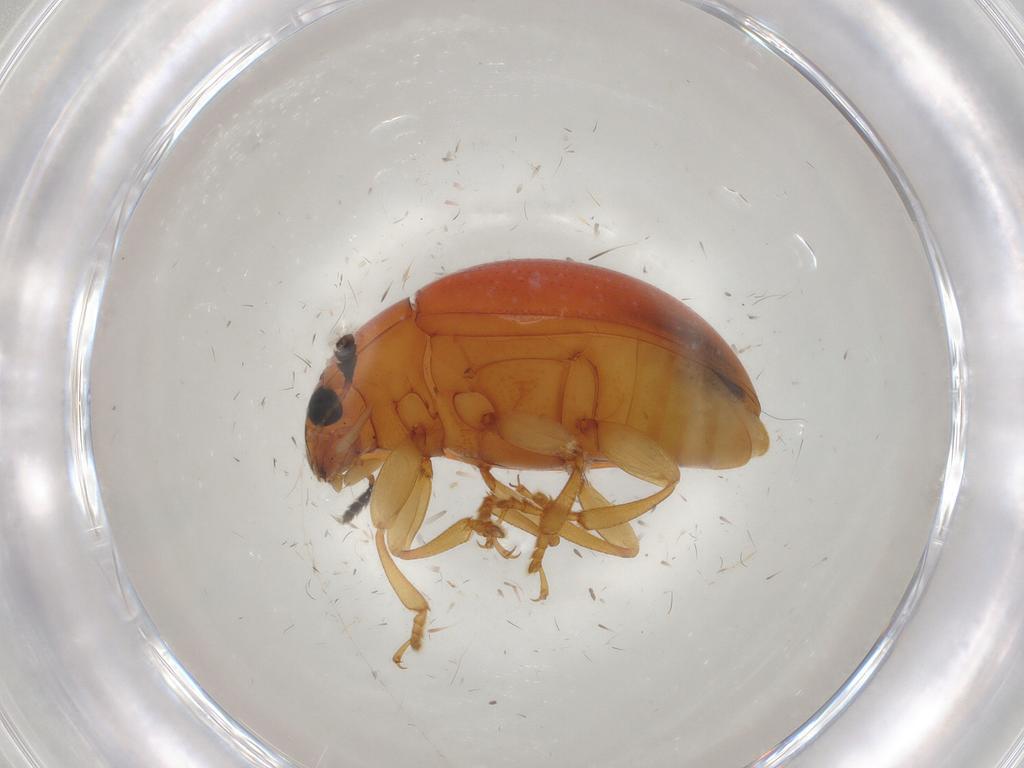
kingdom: Animalia
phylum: Arthropoda
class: Insecta
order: Coleoptera
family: Erotylidae
